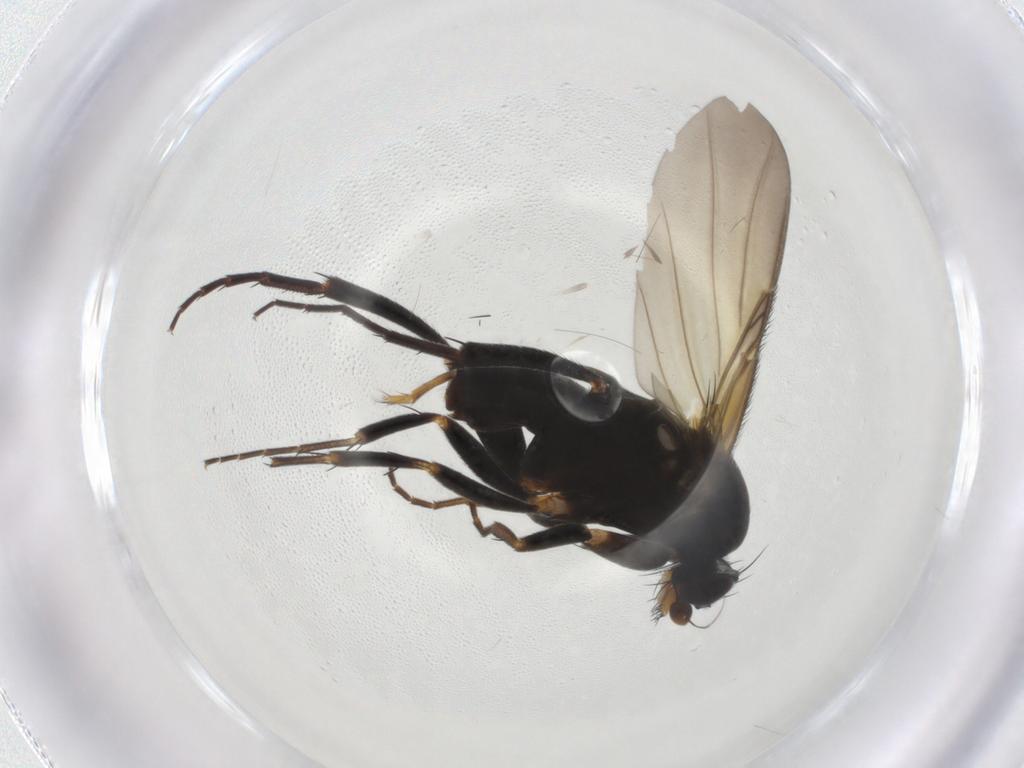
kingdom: Animalia
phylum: Arthropoda
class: Insecta
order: Diptera
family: Phoridae
